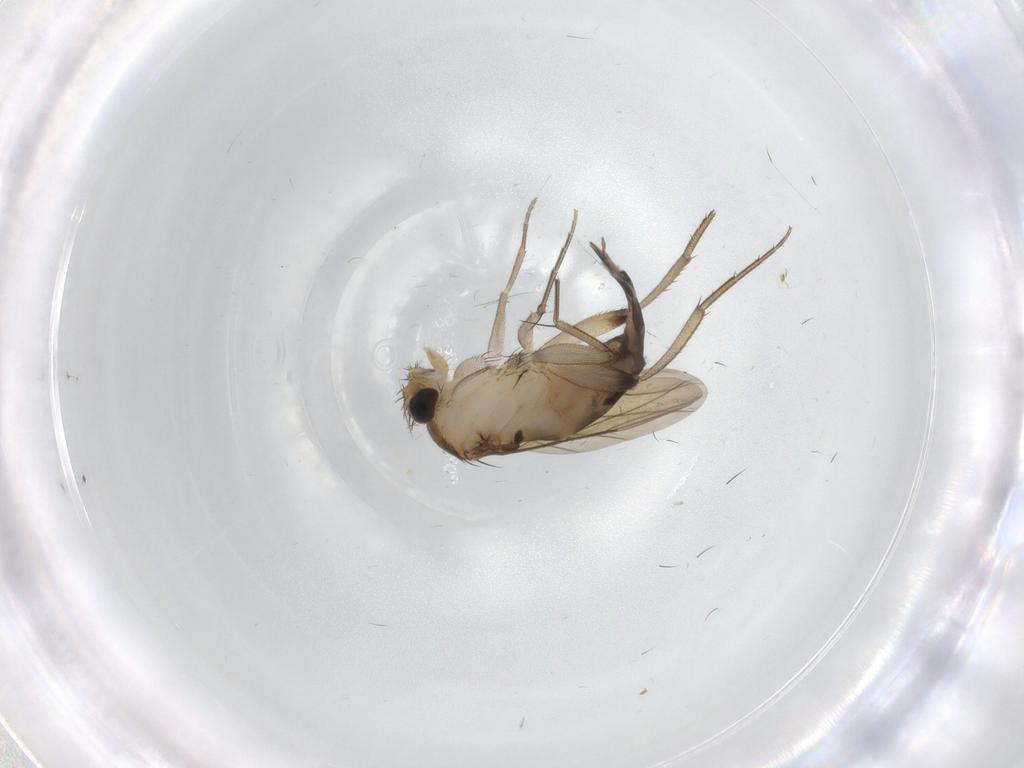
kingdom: Animalia
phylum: Arthropoda
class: Insecta
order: Diptera
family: Phoridae
